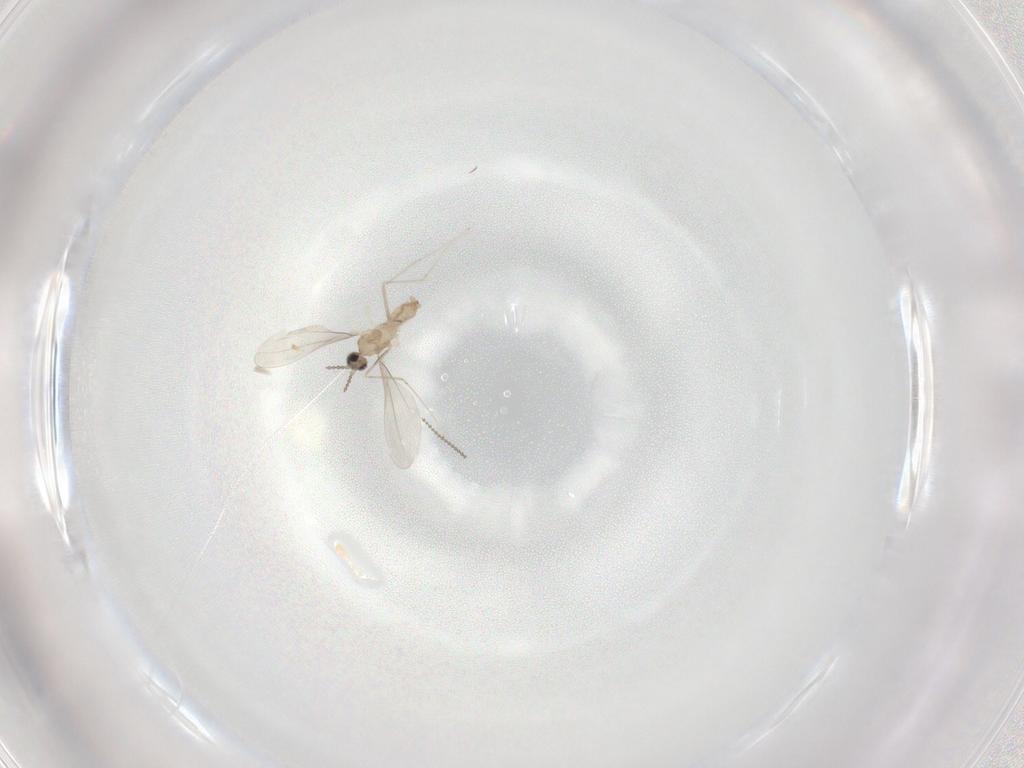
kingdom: Animalia
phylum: Arthropoda
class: Insecta
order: Diptera
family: Cecidomyiidae
